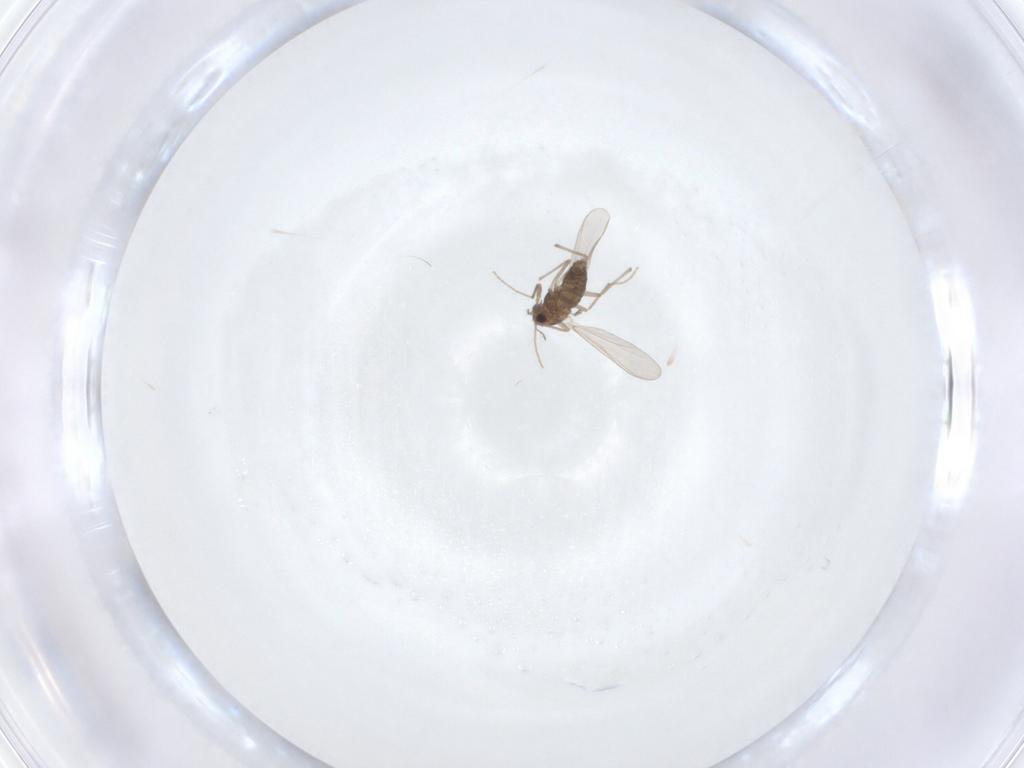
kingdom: Animalia
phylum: Arthropoda
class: Insecta
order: Diptera
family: Chironomidae
